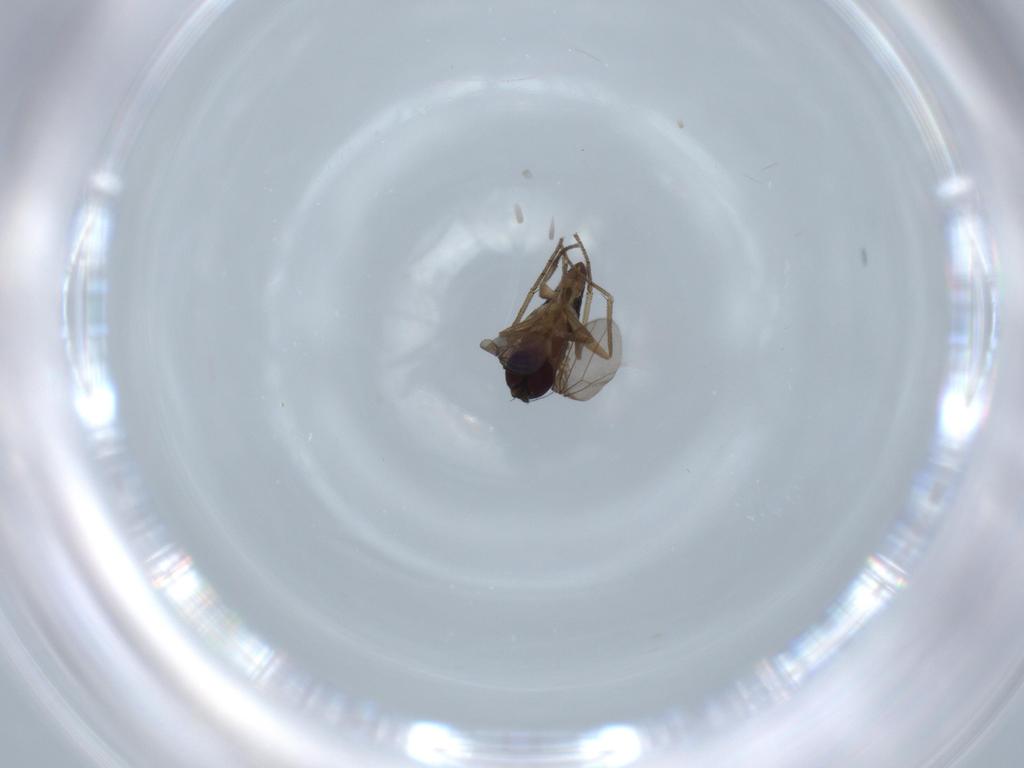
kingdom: Animalia
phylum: Arthropoda
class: Insecta
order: Diptera
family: Dolichopodidae
